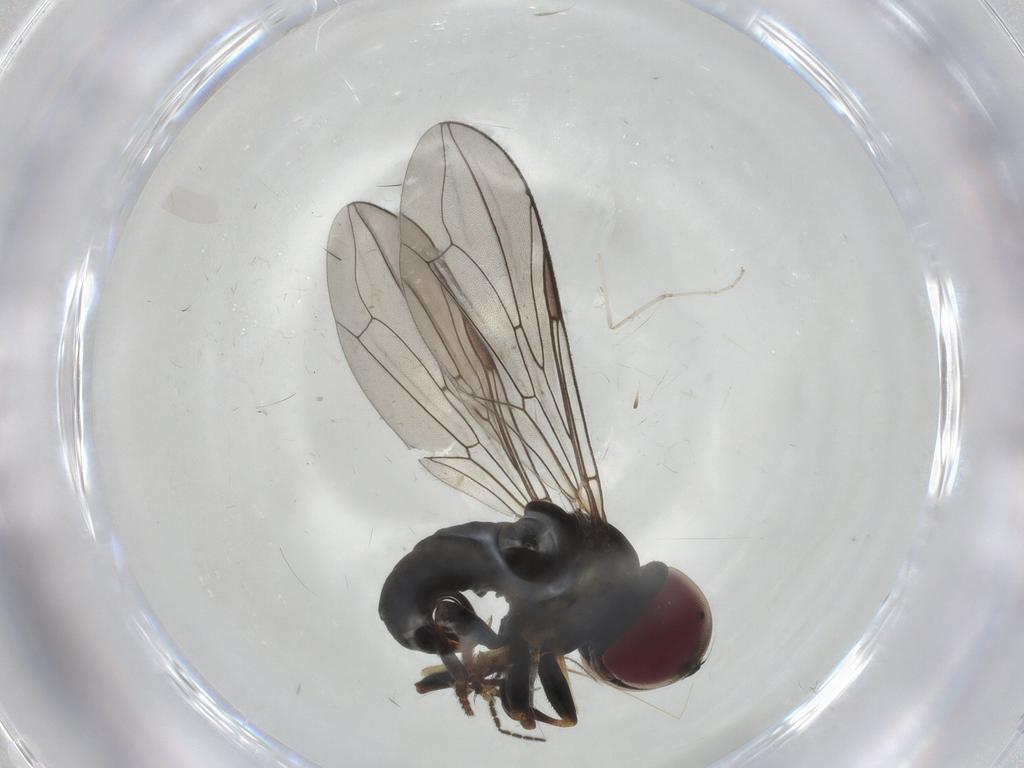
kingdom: Animalia
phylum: Arthropoda
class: Insecta
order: Diptera
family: Pipunculidae
